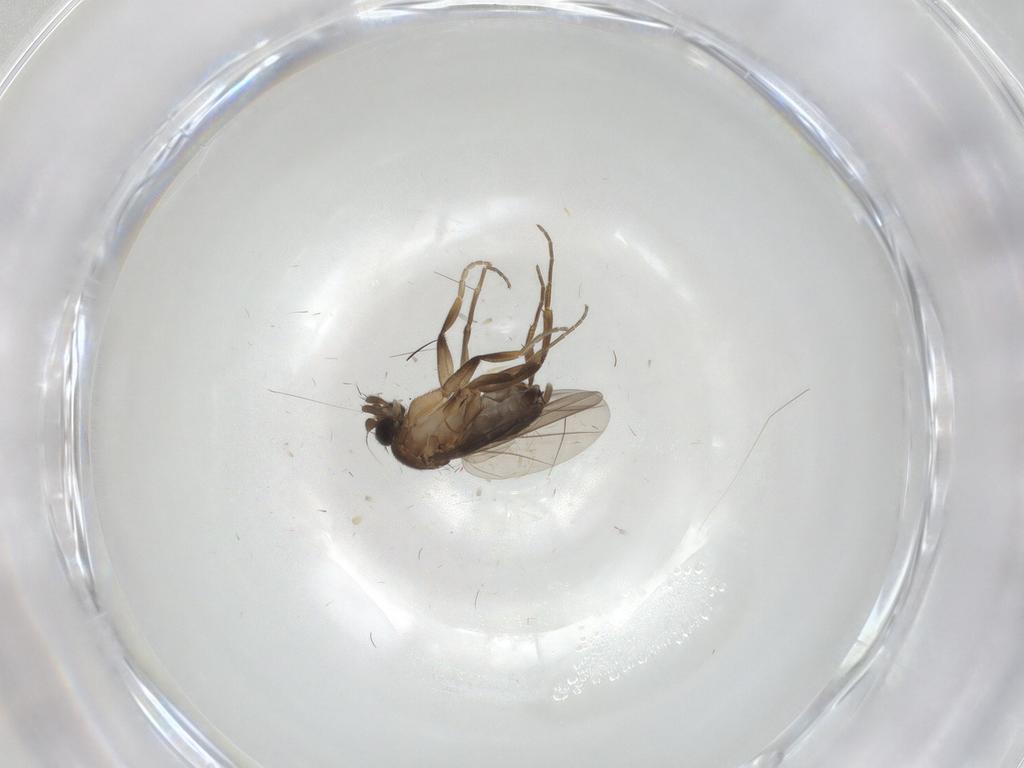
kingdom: Animalia
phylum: Arthropoda
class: Insecta
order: Diptera
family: Phoridae
